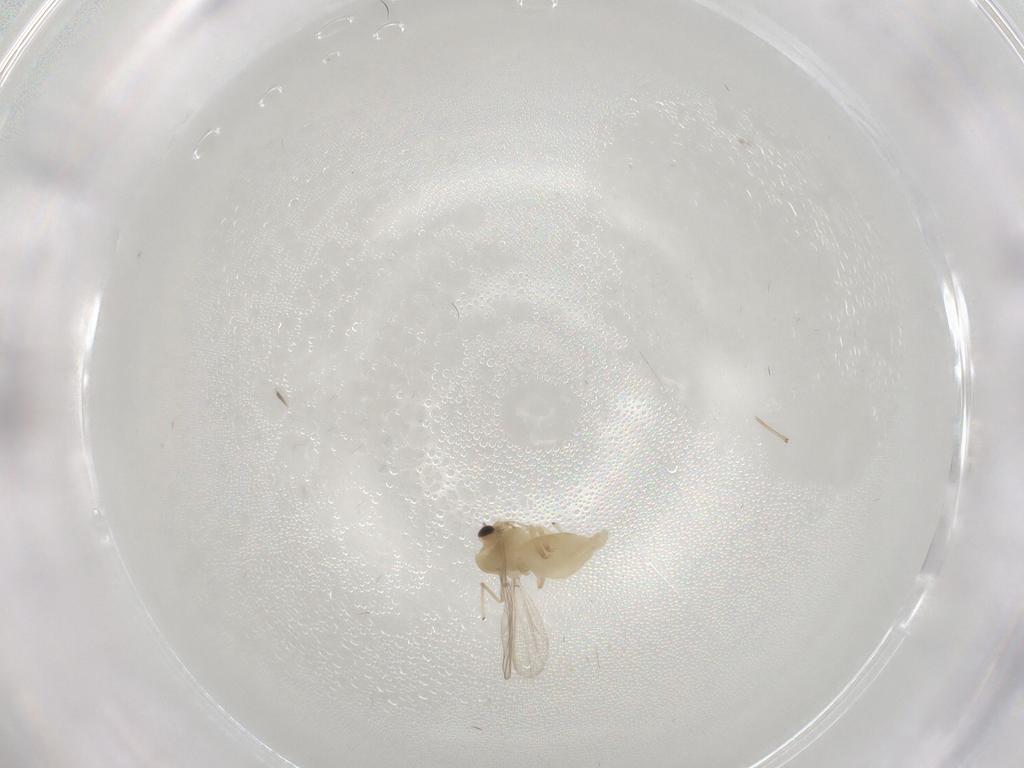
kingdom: Animalia
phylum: Arthropoda
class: Insecta
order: Diptera
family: Chironomidae
